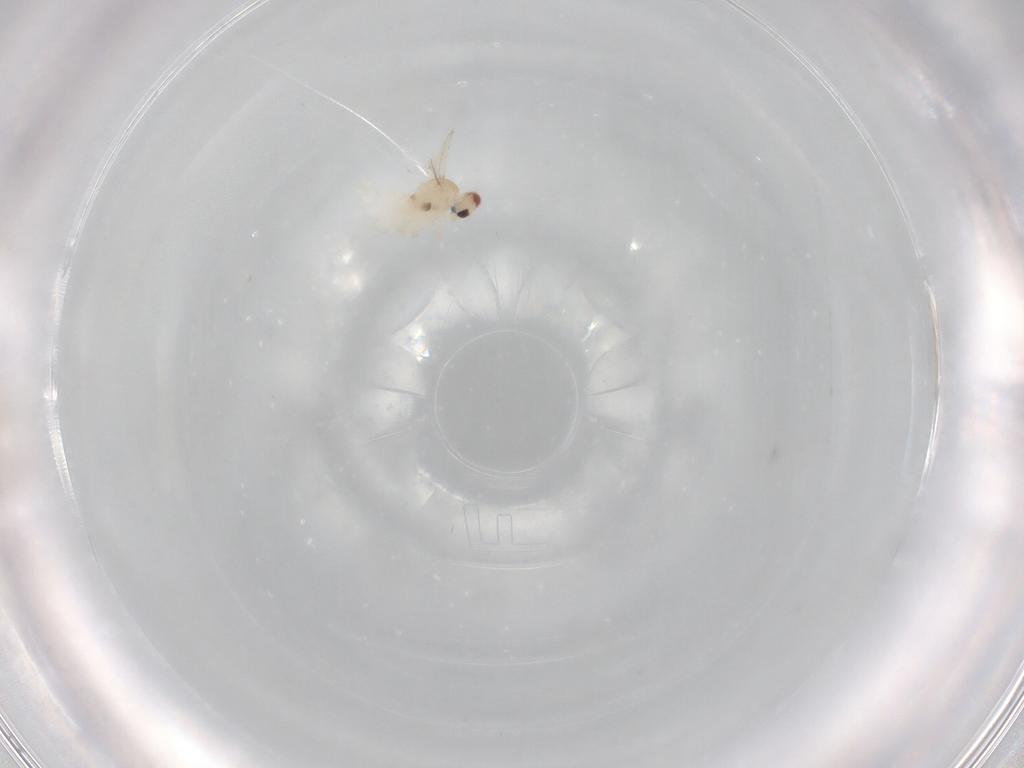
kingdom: Animalia
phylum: Arthropoda
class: Insecta
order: Diptera
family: Cecidomyiidae
